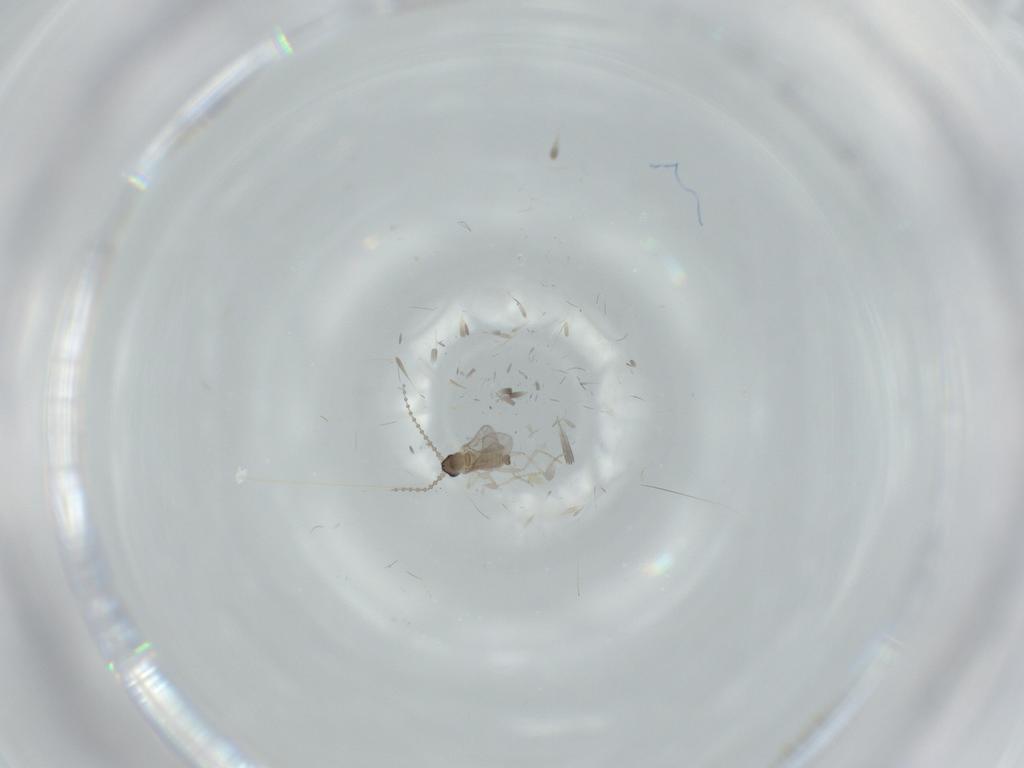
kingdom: Animalia
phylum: Arthropoda
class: Insecta
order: Diptera
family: Cecidomyiidae
